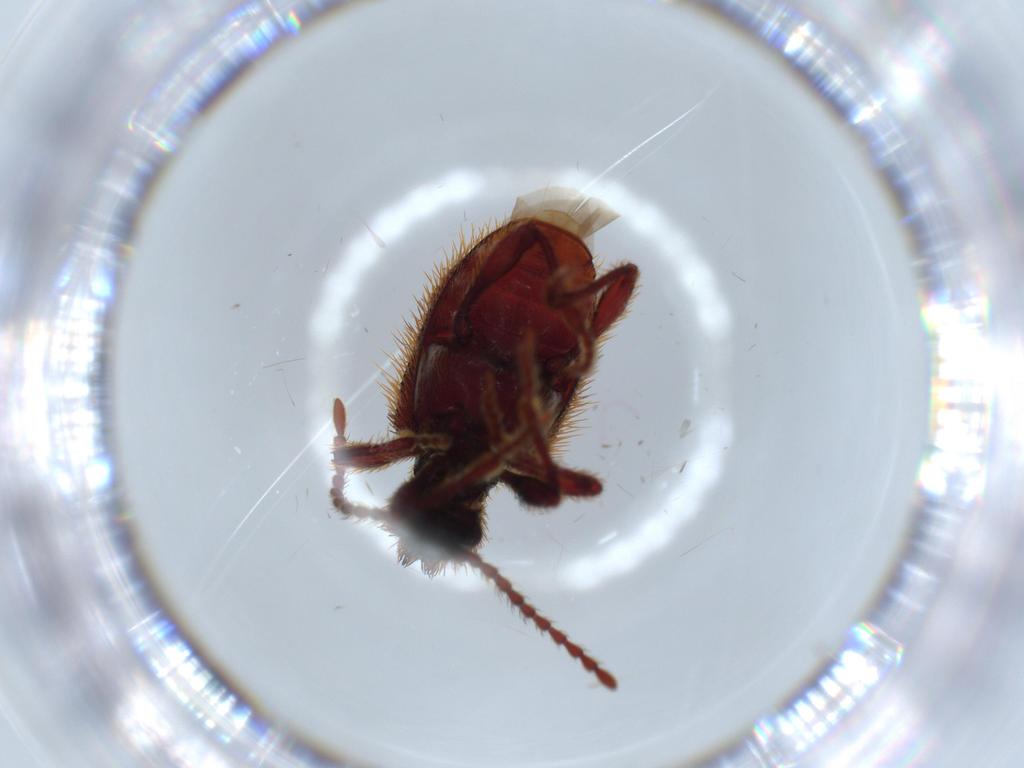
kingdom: Animalia
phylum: Arthropoda
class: Insecta
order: Coleoptera
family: Ptinidae
